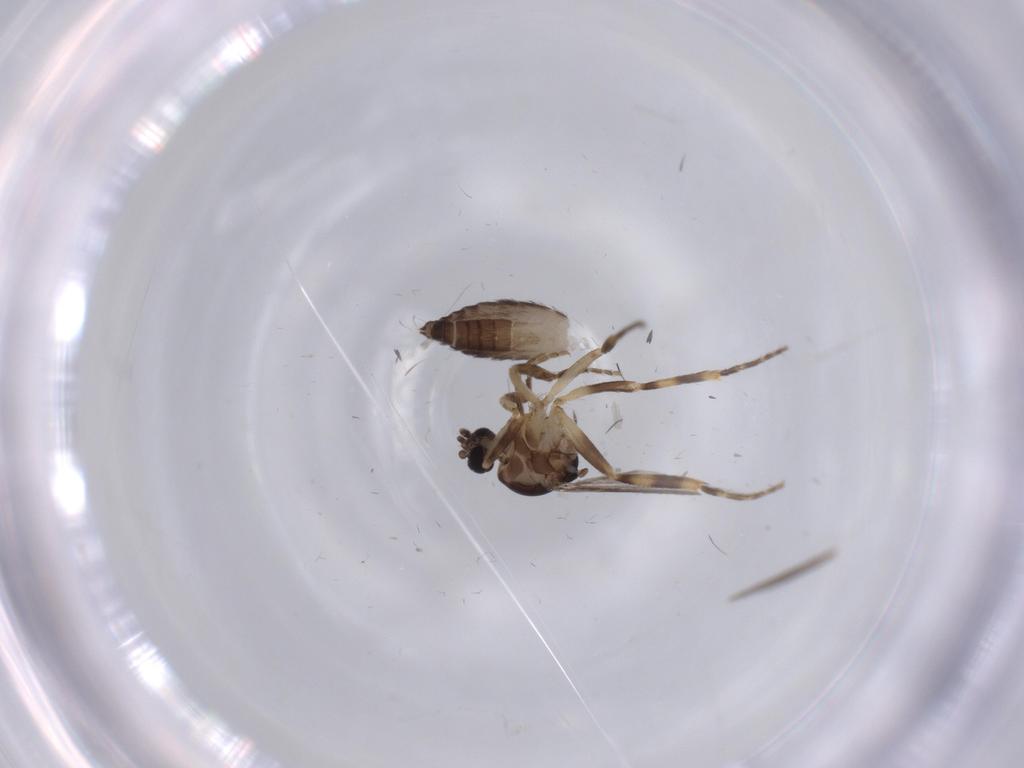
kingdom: Animalia
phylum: Arthropoda
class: Insecta
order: Diptera
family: Ceratopogonidae
